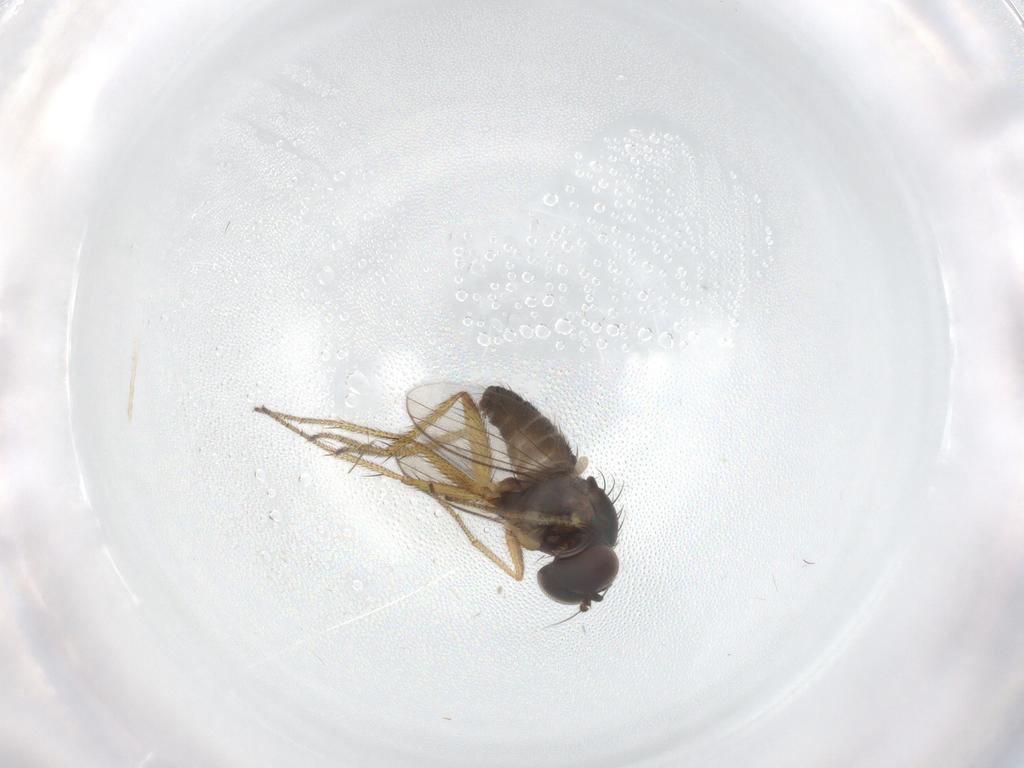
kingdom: Animalia
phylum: Arthropoda
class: Insecta
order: Diptera
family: Chironomidae
